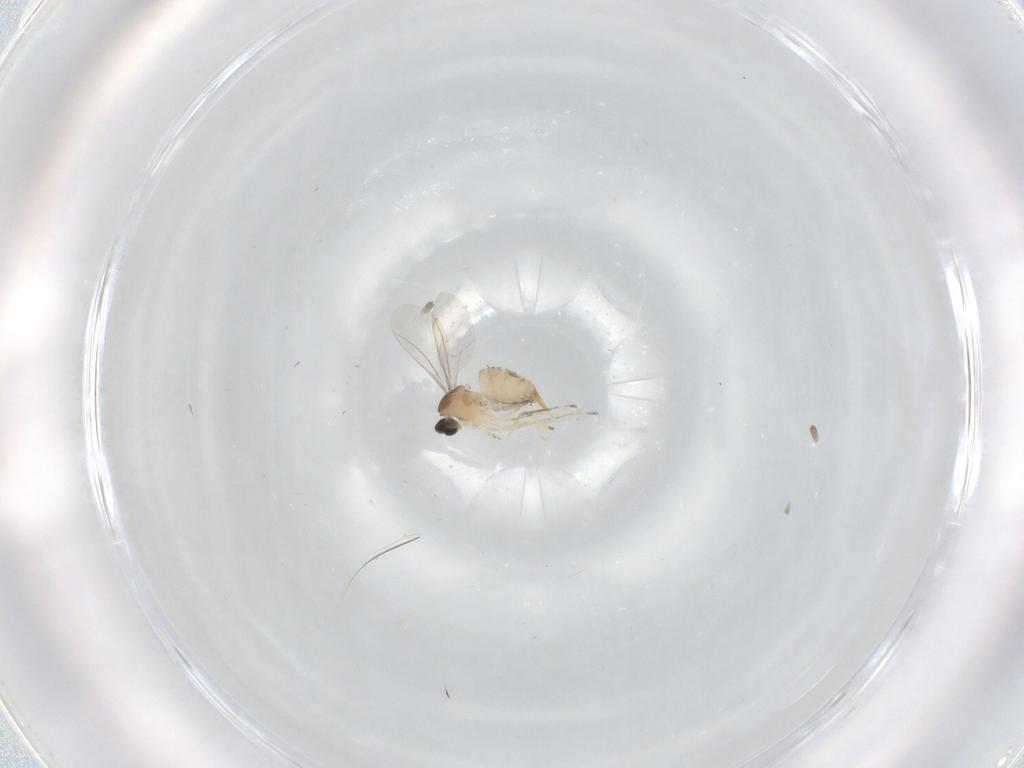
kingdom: Animalia
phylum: Arthropoda
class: Insecta
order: Diptera
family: Cecidomyiidae
